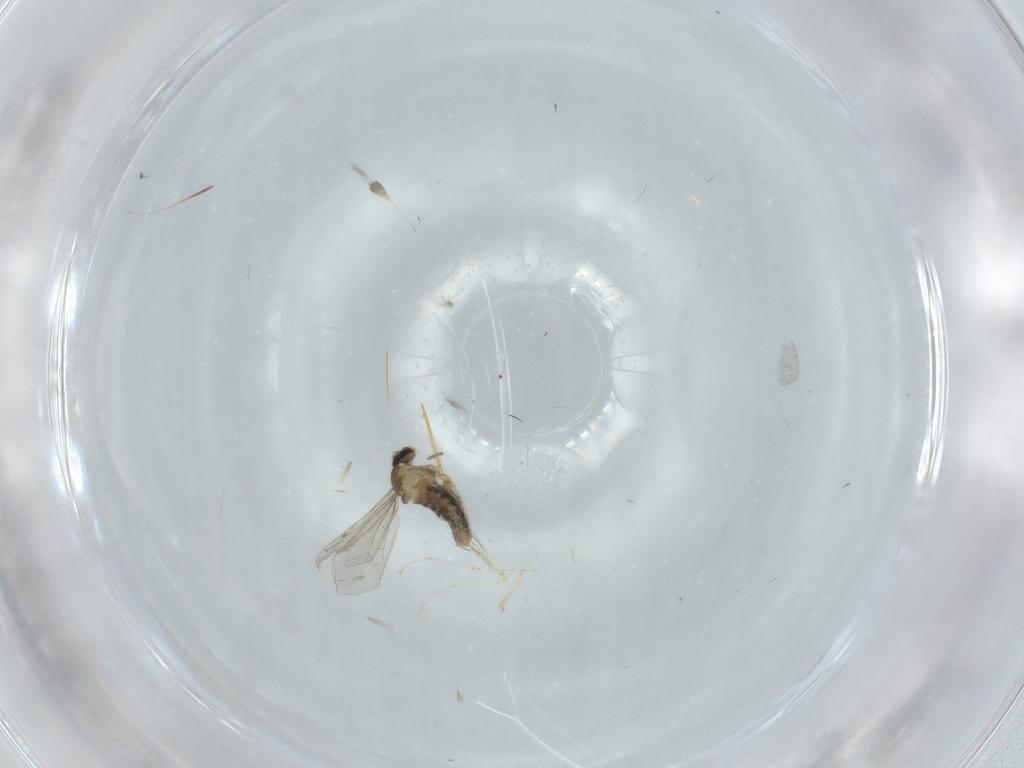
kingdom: Animalia
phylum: Arthropoda
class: Insecta
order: Diptera
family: Cecidomyiidae
